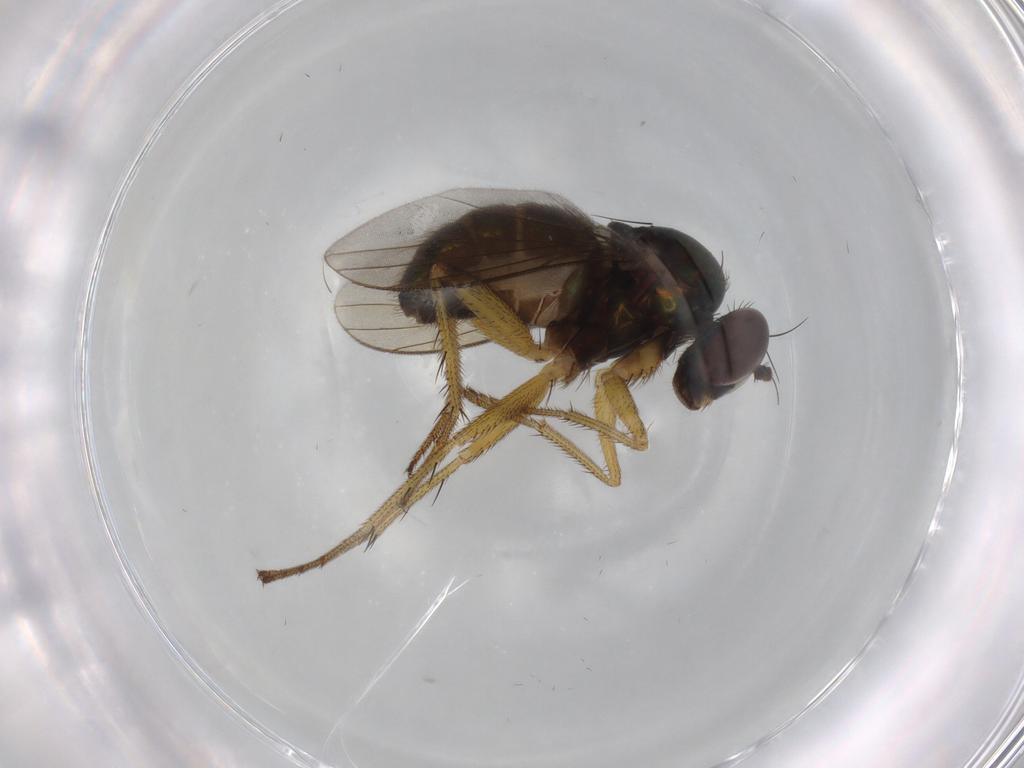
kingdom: Animalia
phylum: Arthropoda
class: Insecta
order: Diptera
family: Dolichopodidae
